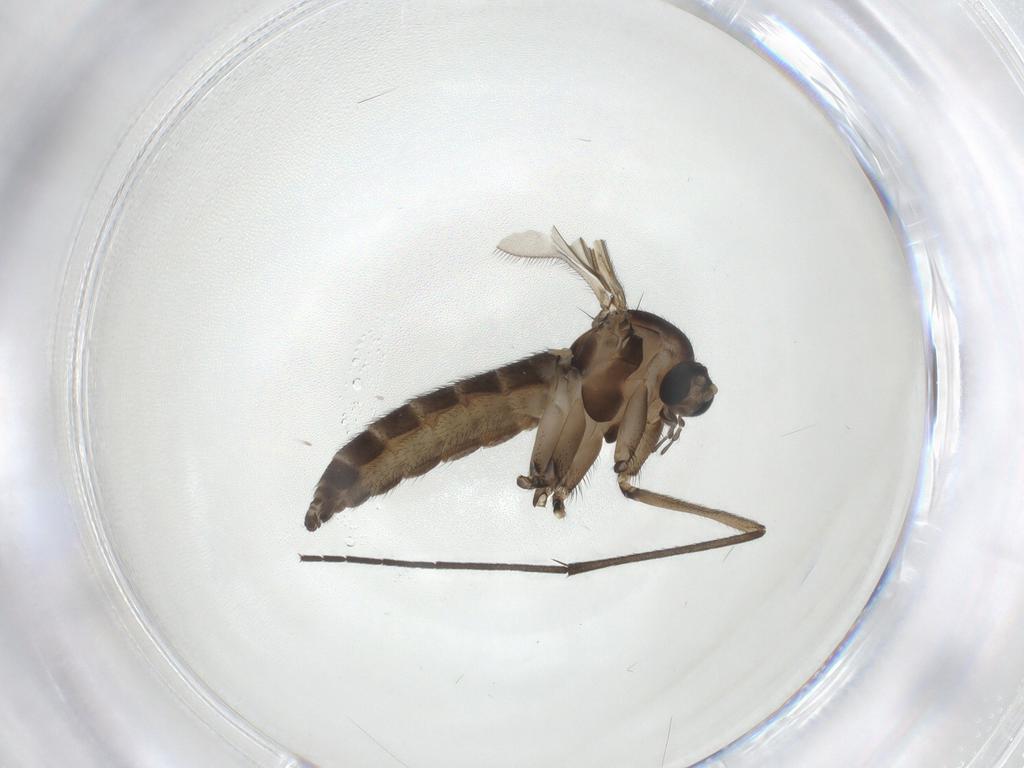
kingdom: Animalia
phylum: Arthropoda
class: Insecta
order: Diptera
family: Sciaridae
